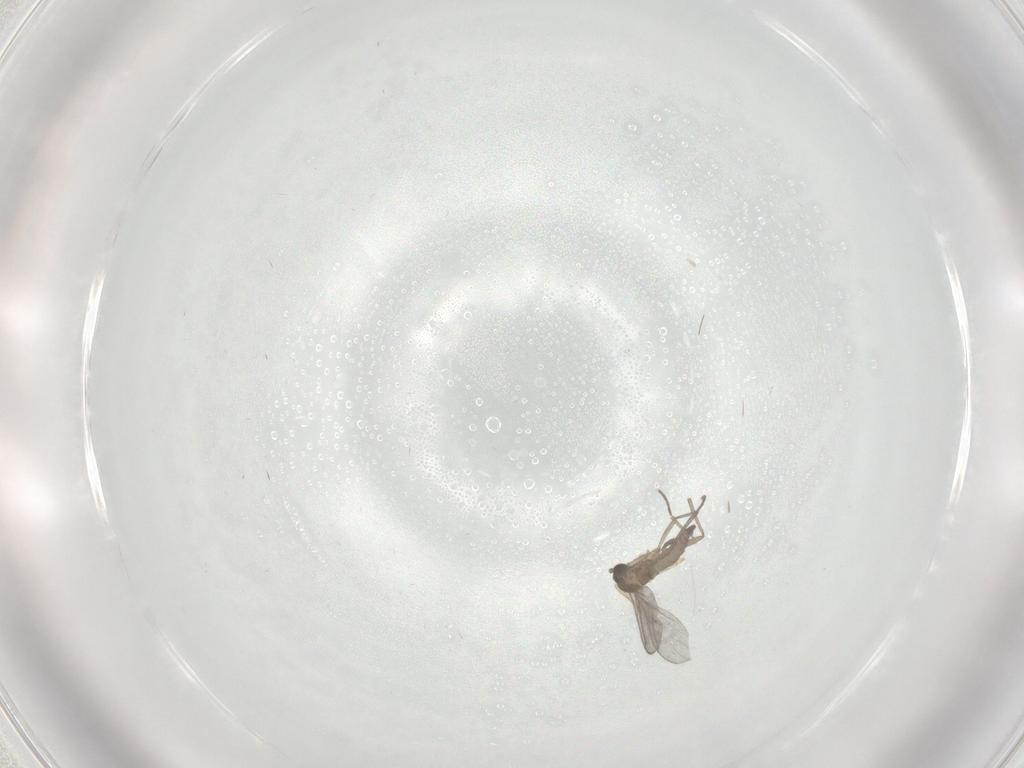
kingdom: Animalia
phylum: Arthropoda
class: Insecta
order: Diptera
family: Sciaridae
